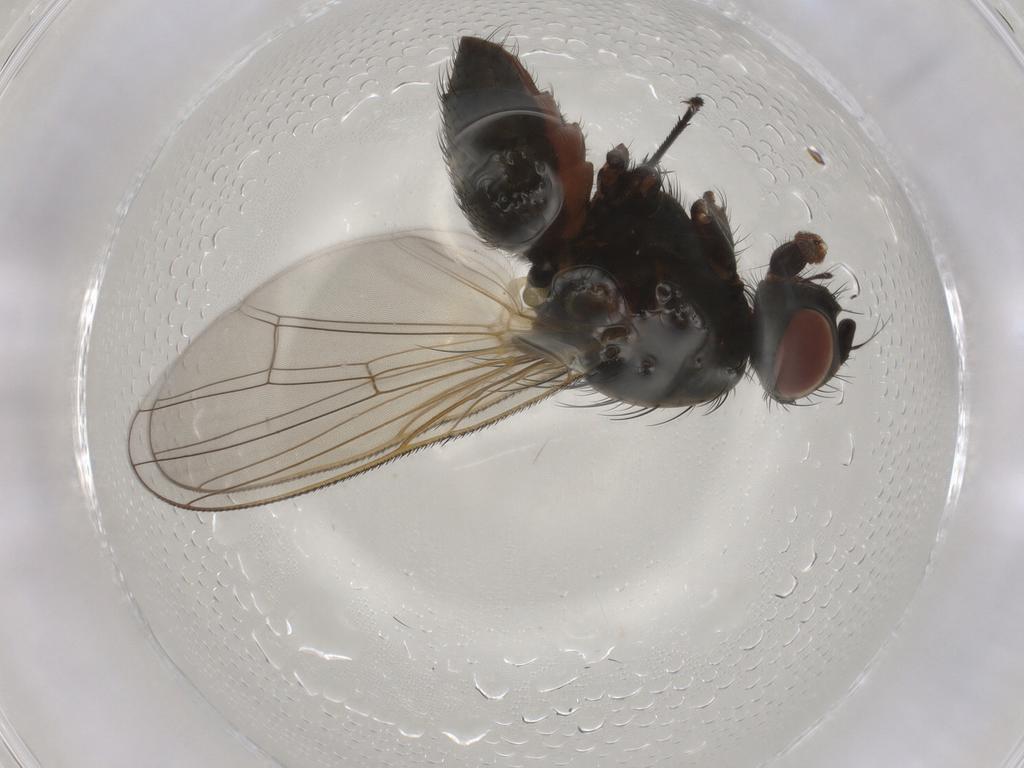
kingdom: Animalia
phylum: Arthropoda
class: Insecta
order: Diptera
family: Anthomyiidae
